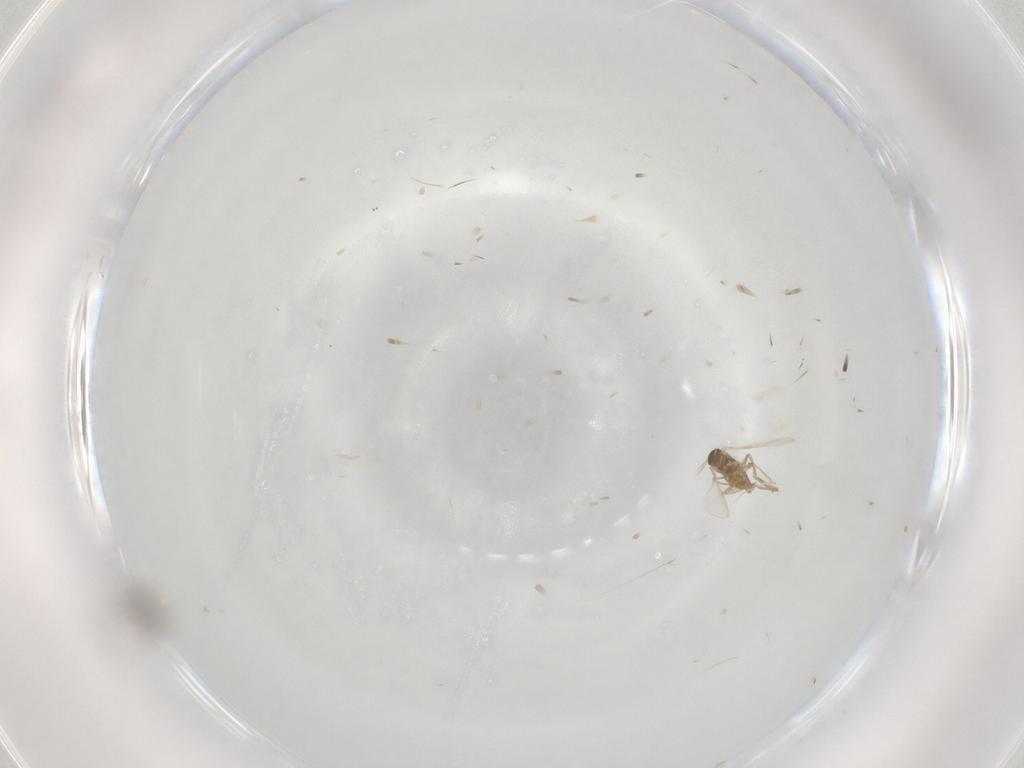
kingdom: Animalia
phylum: Arthropoda
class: Insecta
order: Diptera
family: Cecidomyiidae
